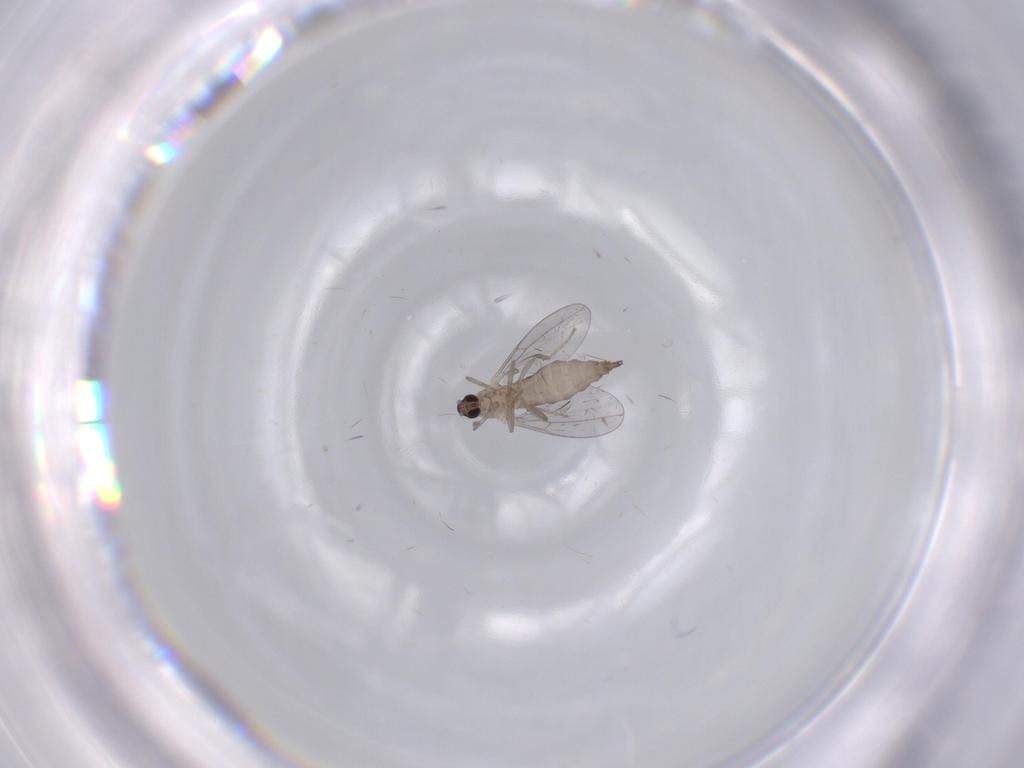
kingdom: Animalia
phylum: Arthropoda
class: Insecta
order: Diptera
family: Cecidomyiidae
